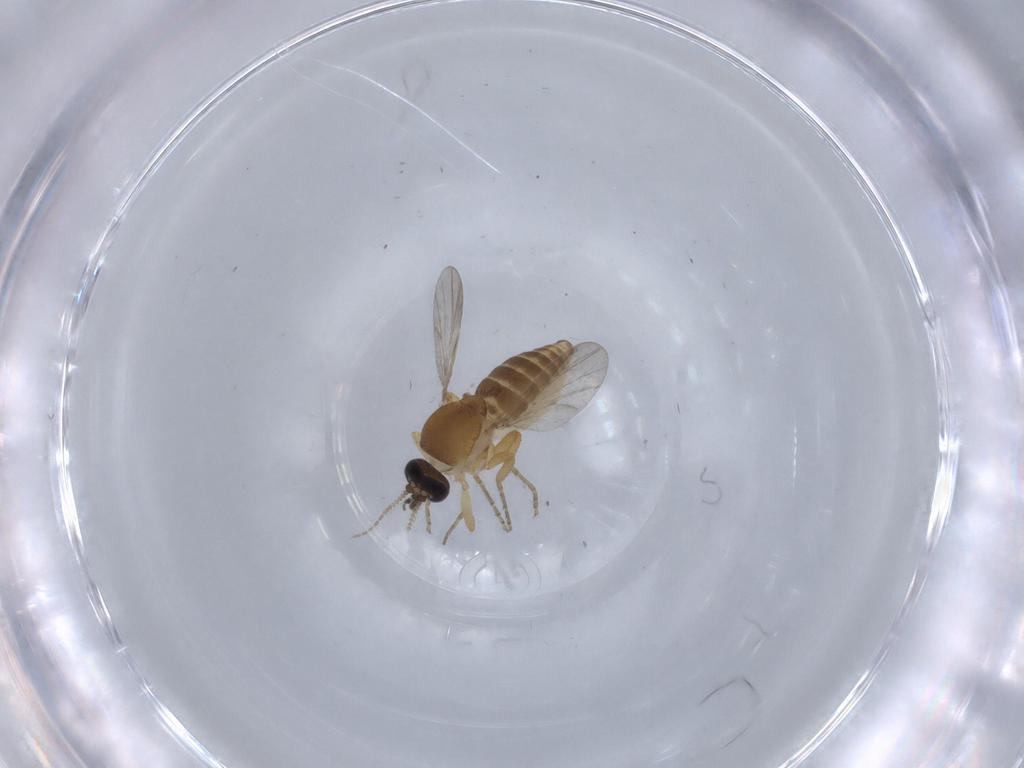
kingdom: Animalia
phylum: Arthropoda
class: Insecta
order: Diptera
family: Ceratopogonidae
